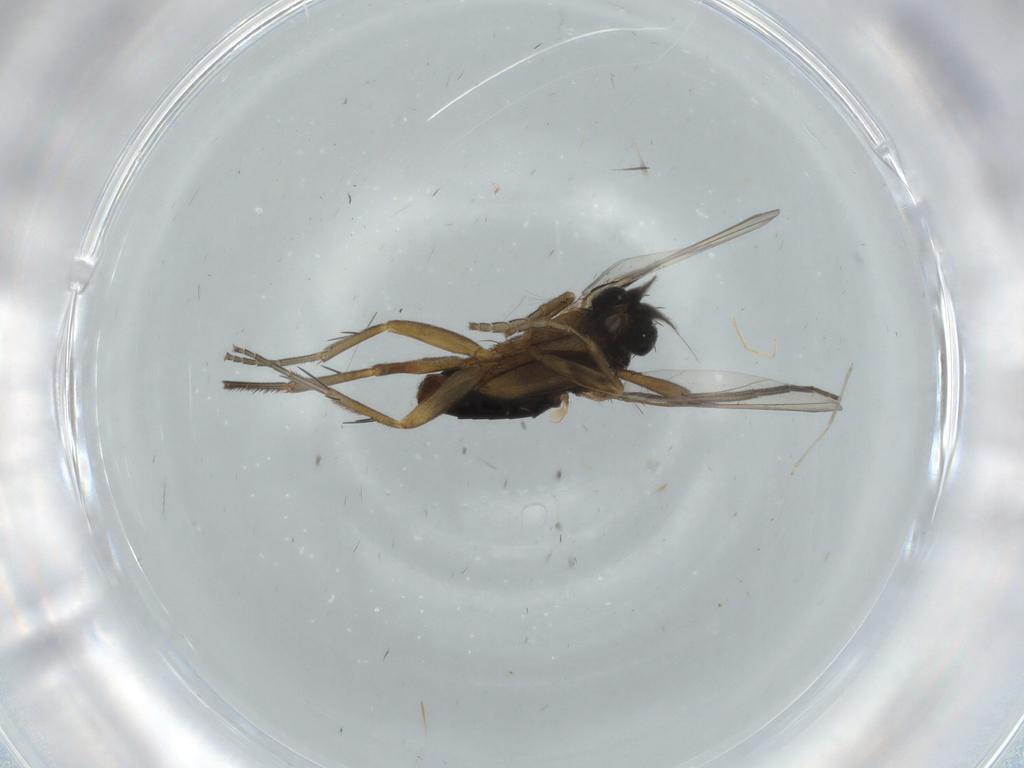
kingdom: Animalia
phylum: Arthropoda
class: Insecta
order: Diptera
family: Phoridae
